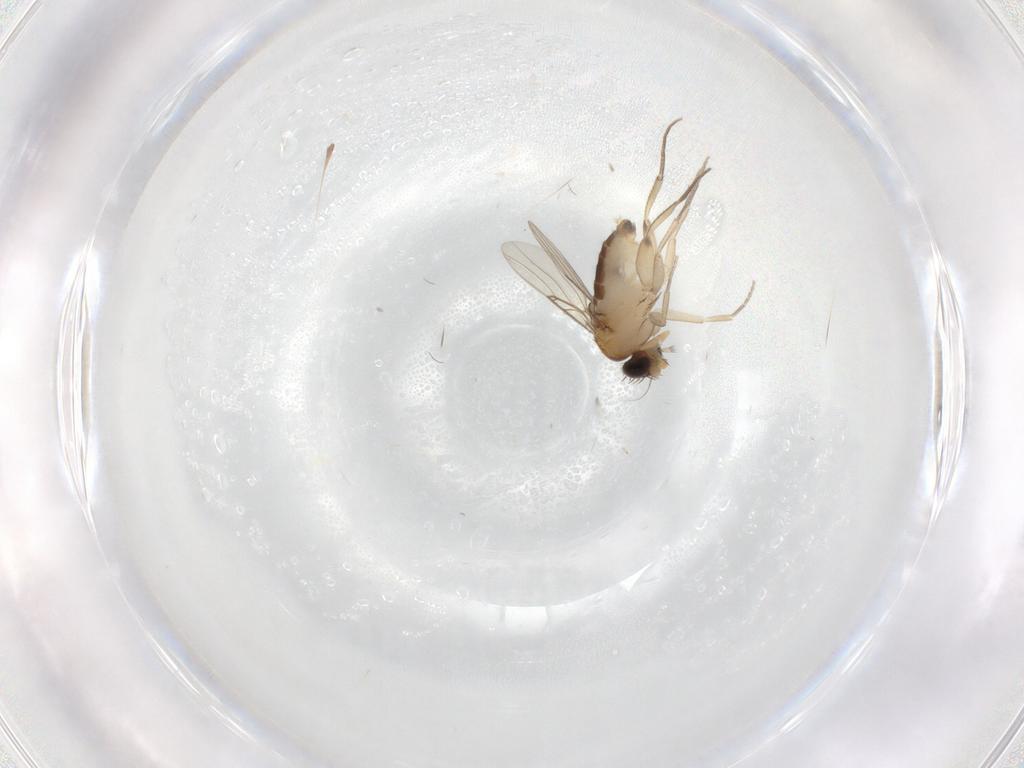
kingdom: Animalia
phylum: Arthropoda
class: Insecta
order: Diptera
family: Phoridae
